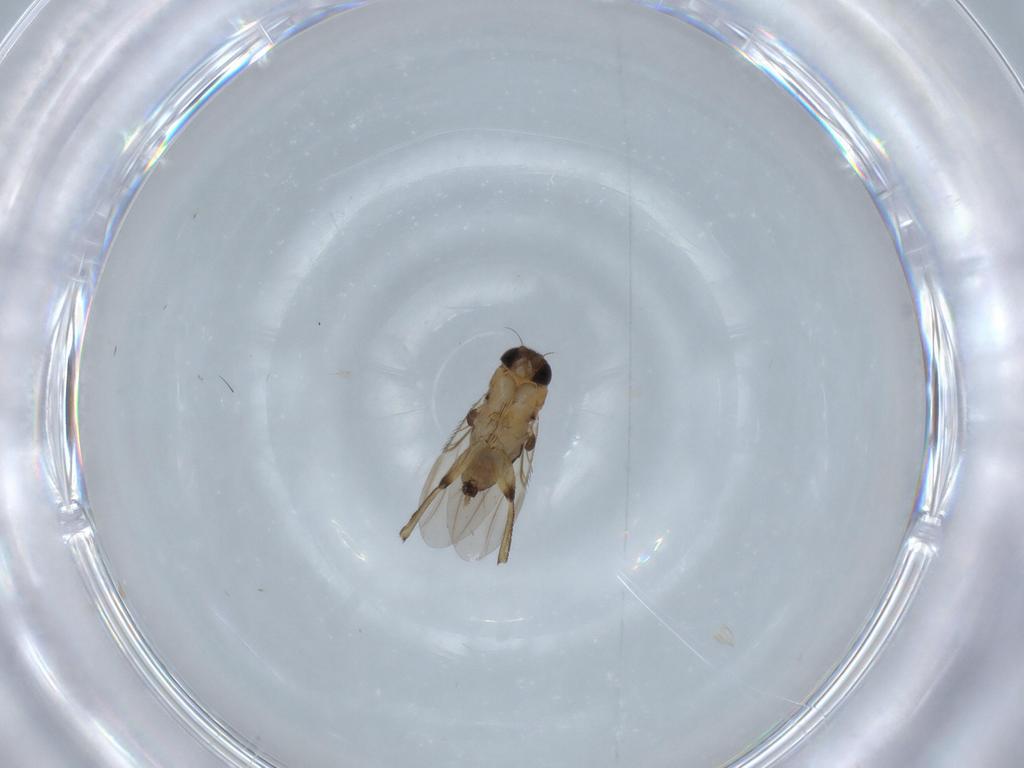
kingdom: Animalia
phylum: Arthropoda
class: Insecta
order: Diptera
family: Phoridae
